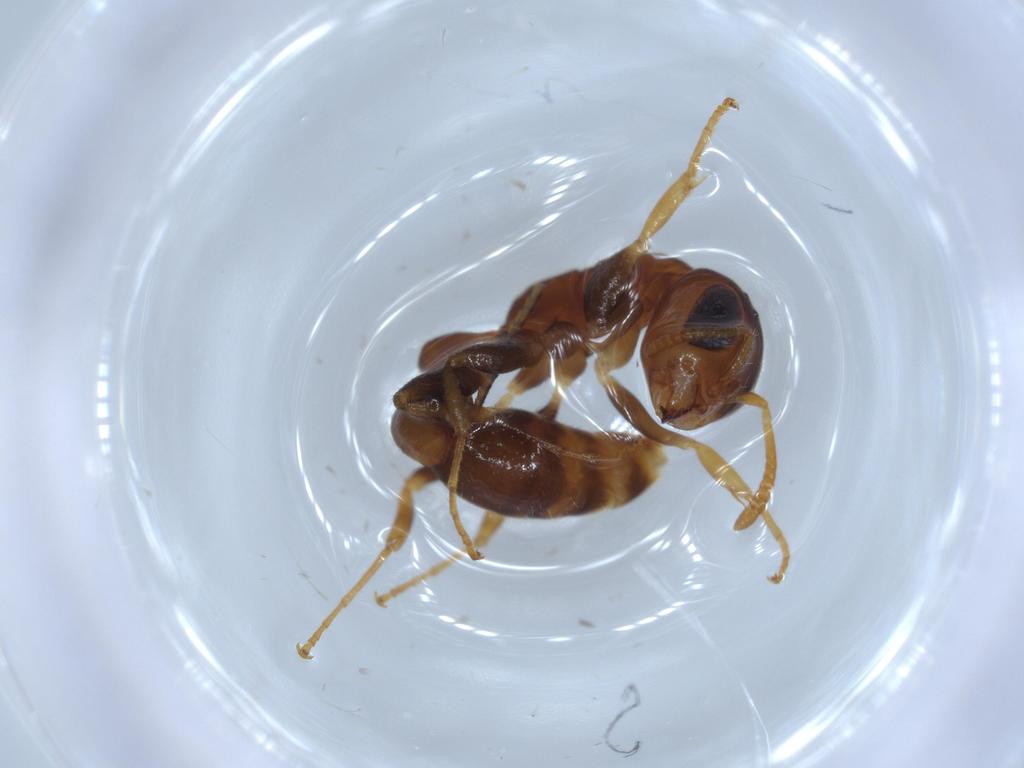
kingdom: Animalia
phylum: Arthropoda
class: Insecta
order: Hymenoptera
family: Formicidae
